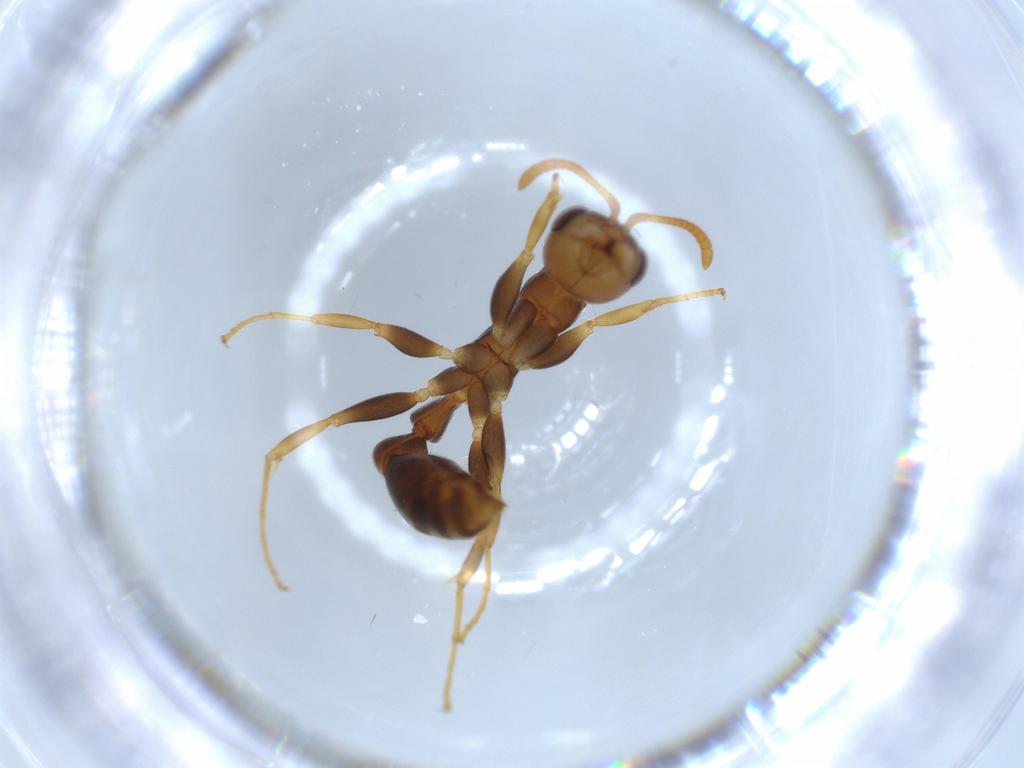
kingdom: Animalia
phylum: Arthropoda
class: Insecta
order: Hymenoptera
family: Formicidae
